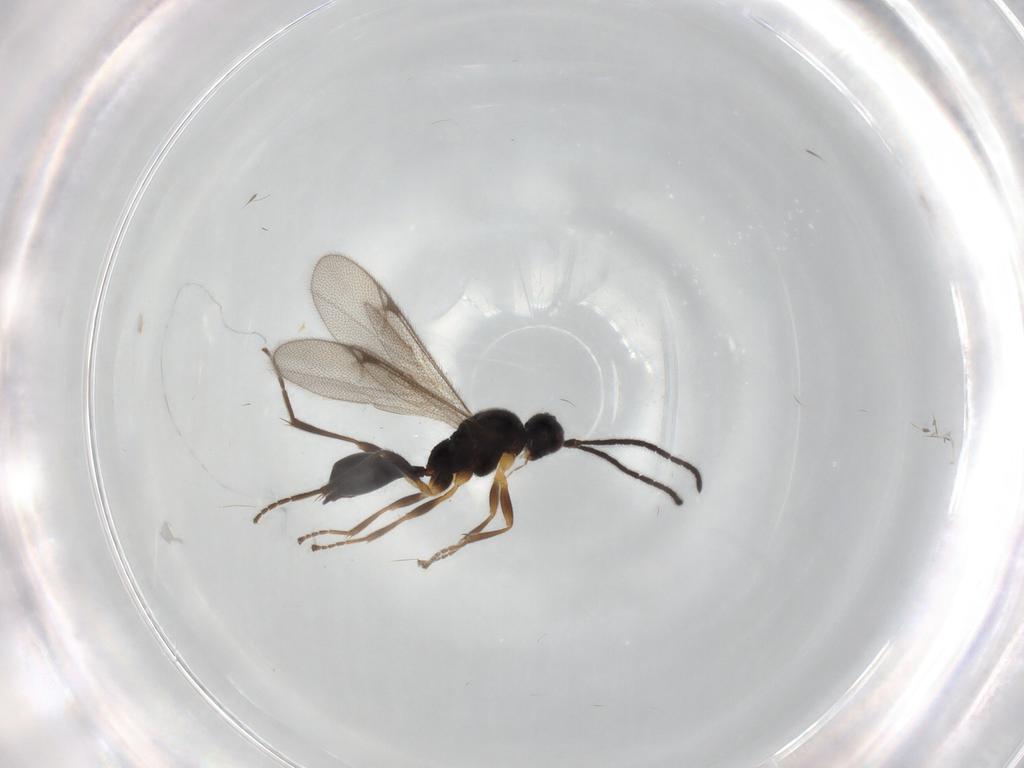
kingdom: Animalia
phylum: Arthropoda
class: Insecta
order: Hymenoptera
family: Proctotrupidae
